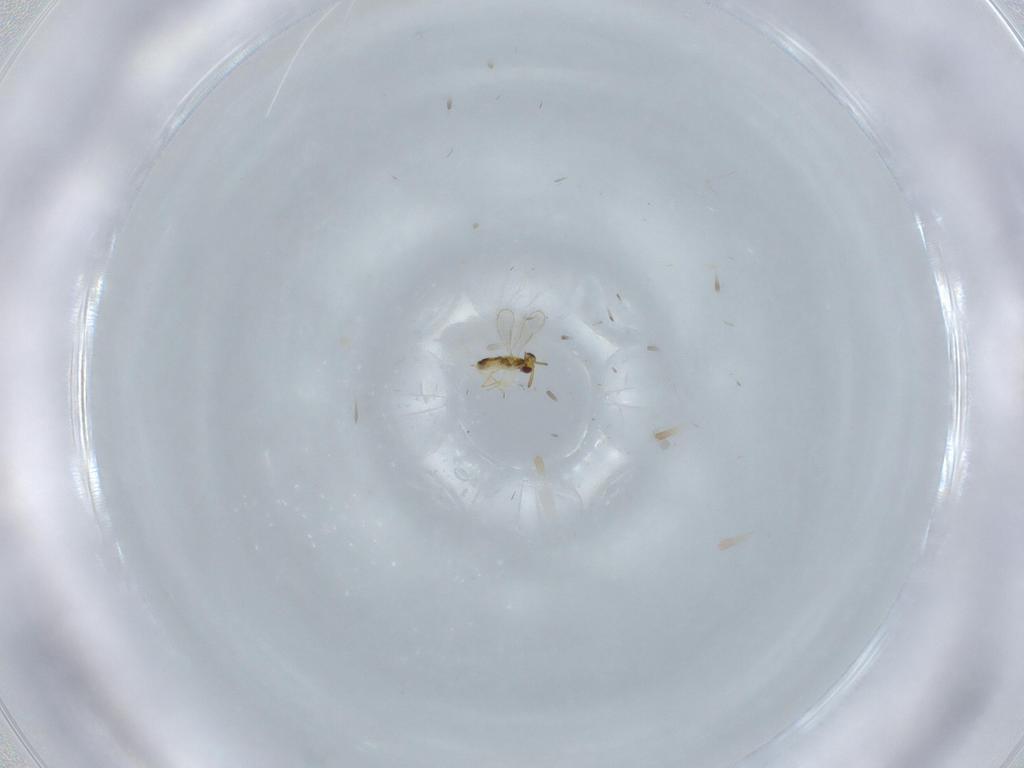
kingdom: Animalia
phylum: Arthropoda
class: Insecta
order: Hymenoptera
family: Aphelinidae
